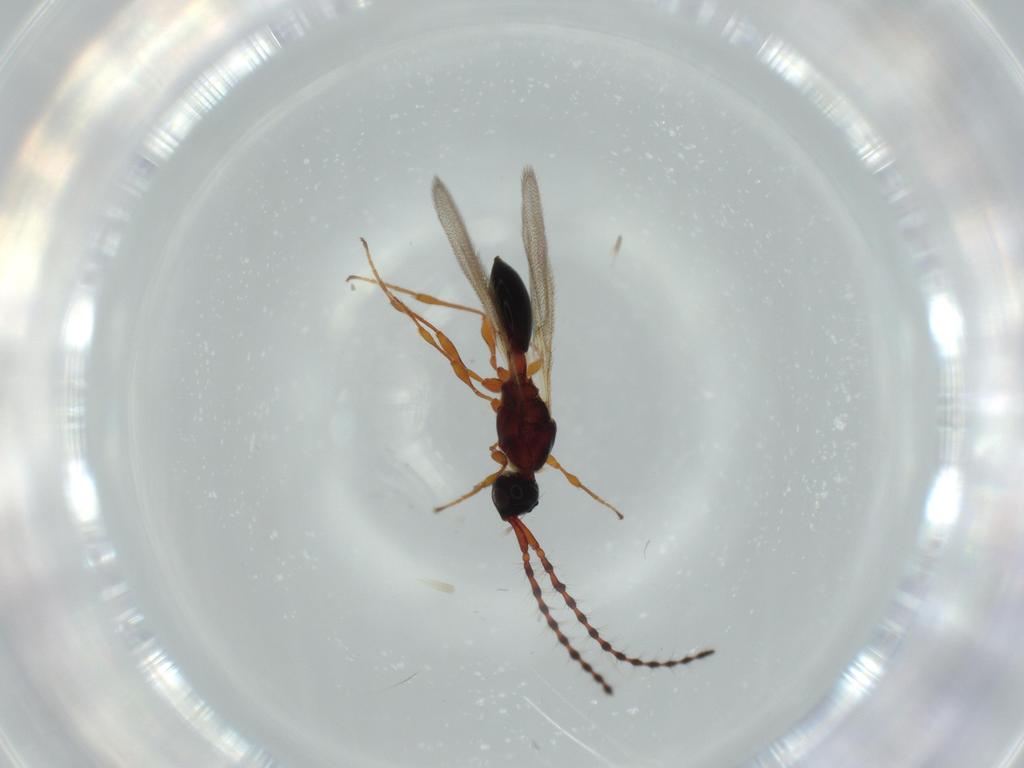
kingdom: Animalia
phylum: Arthropoda
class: Insecta
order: Hymenoptera
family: Diapriidae
